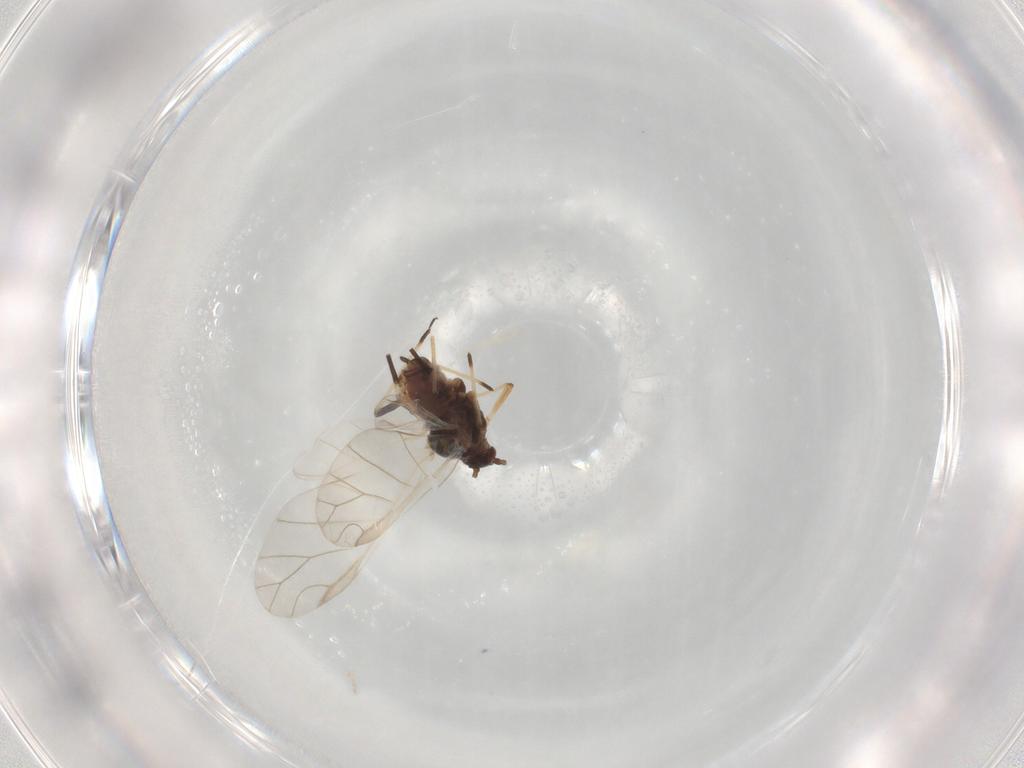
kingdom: Animalia
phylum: Arthropoda
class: Insecta
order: Hemiptera
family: Aphididae
